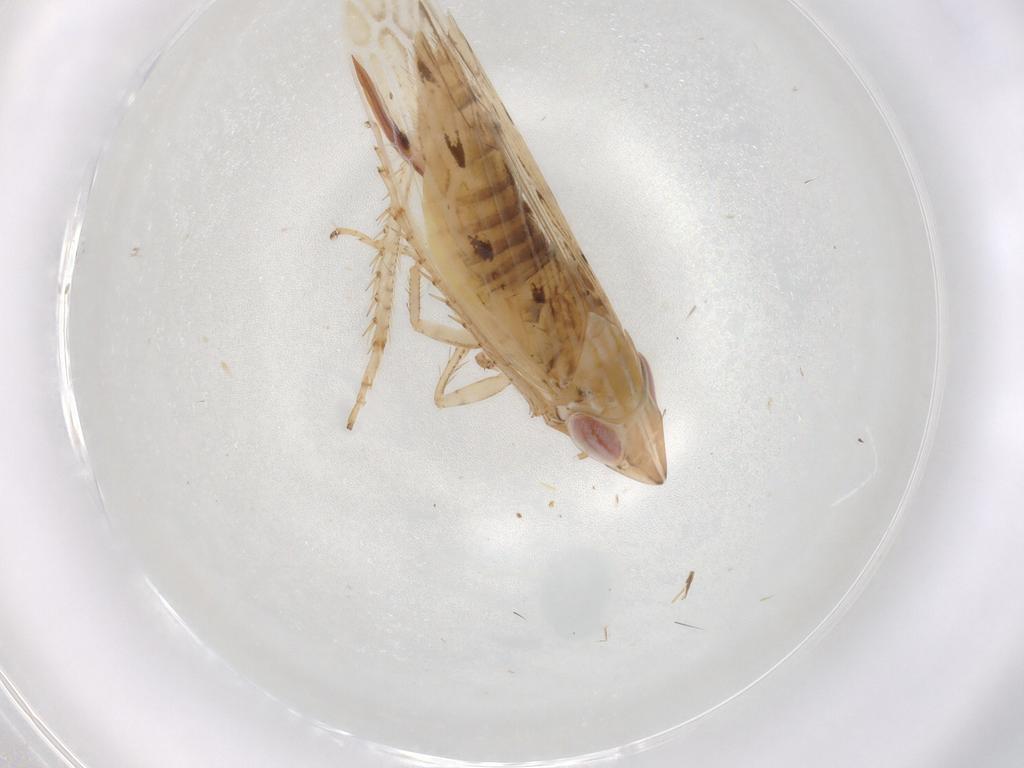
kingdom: Animalia
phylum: Arthropoda
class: Insecta
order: Hemiptera
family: Cicadellidae
